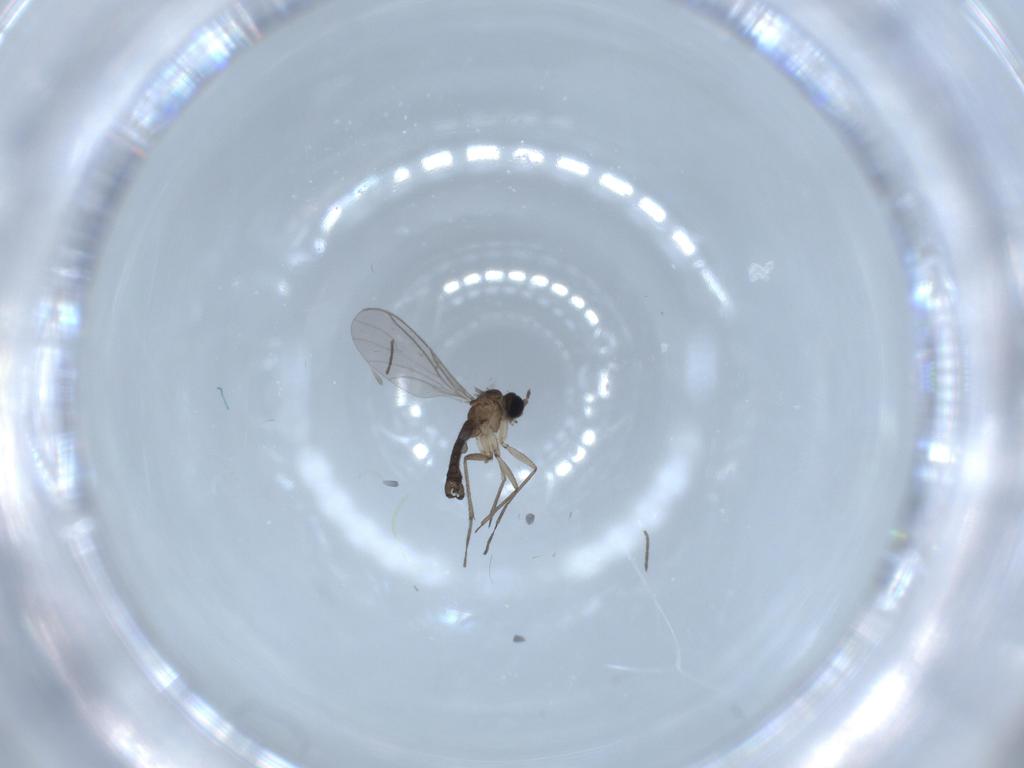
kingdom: Animalia
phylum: Arthropoda
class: Insecta
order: Diptera
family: Sciaridae
